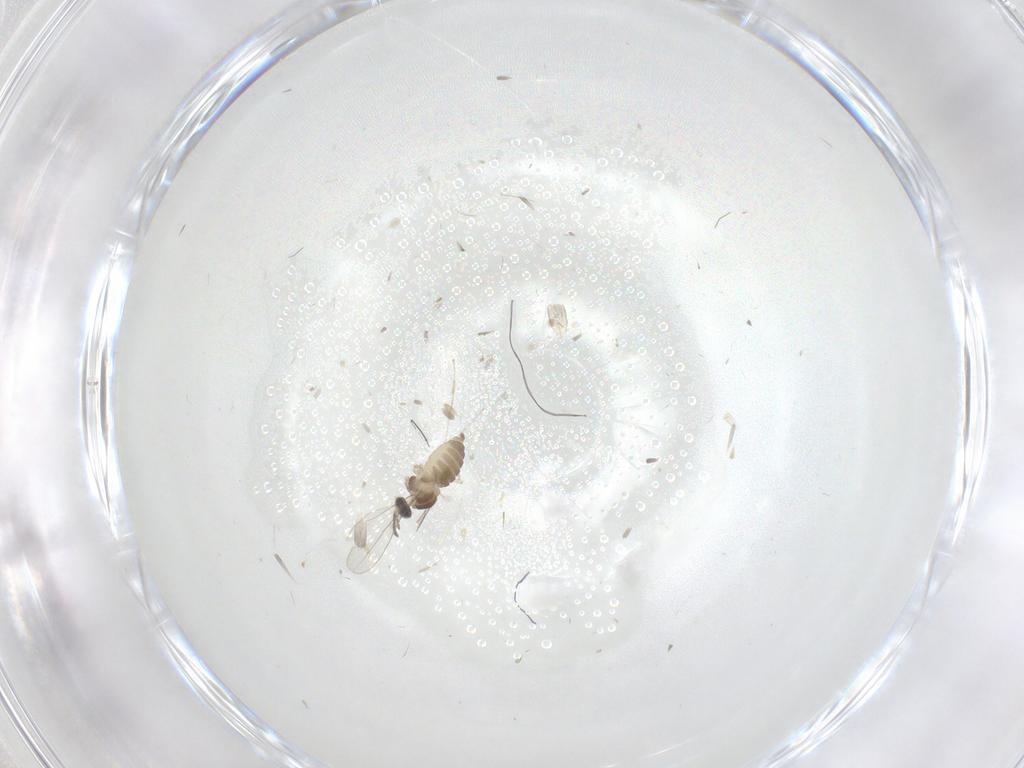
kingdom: Animalia
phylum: Arthropoda
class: Insecta
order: Diptera
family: Cecidomyiidae
